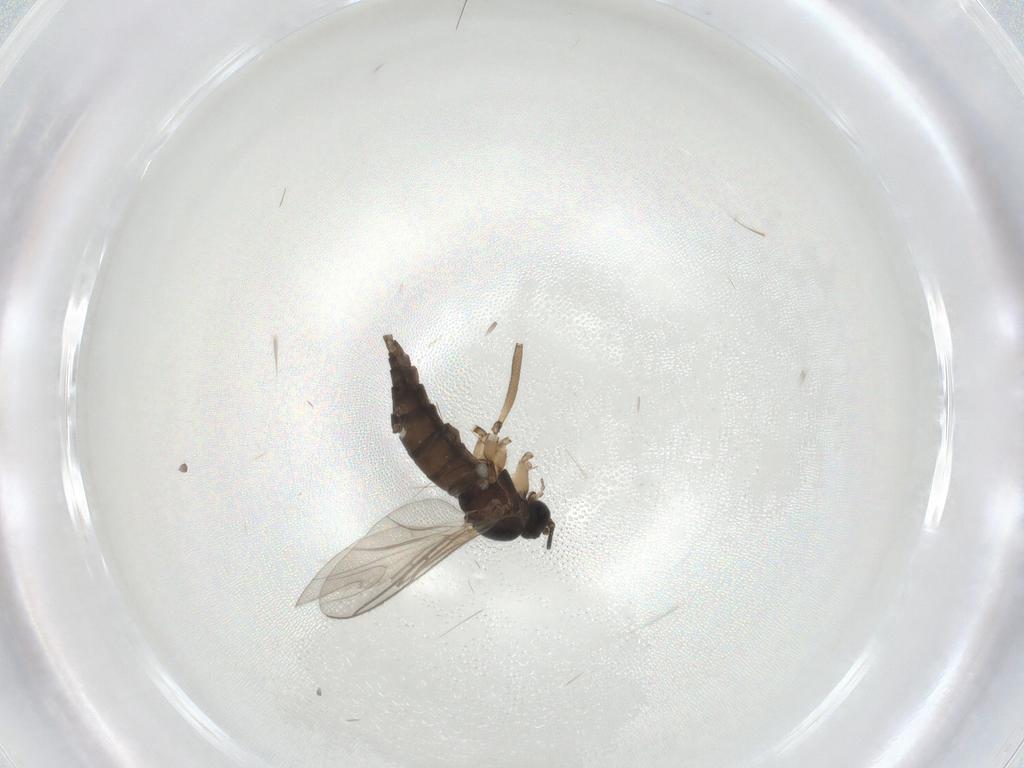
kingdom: Animalia
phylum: Arthropoda
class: Insecta
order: Diptera
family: Sciaridae
